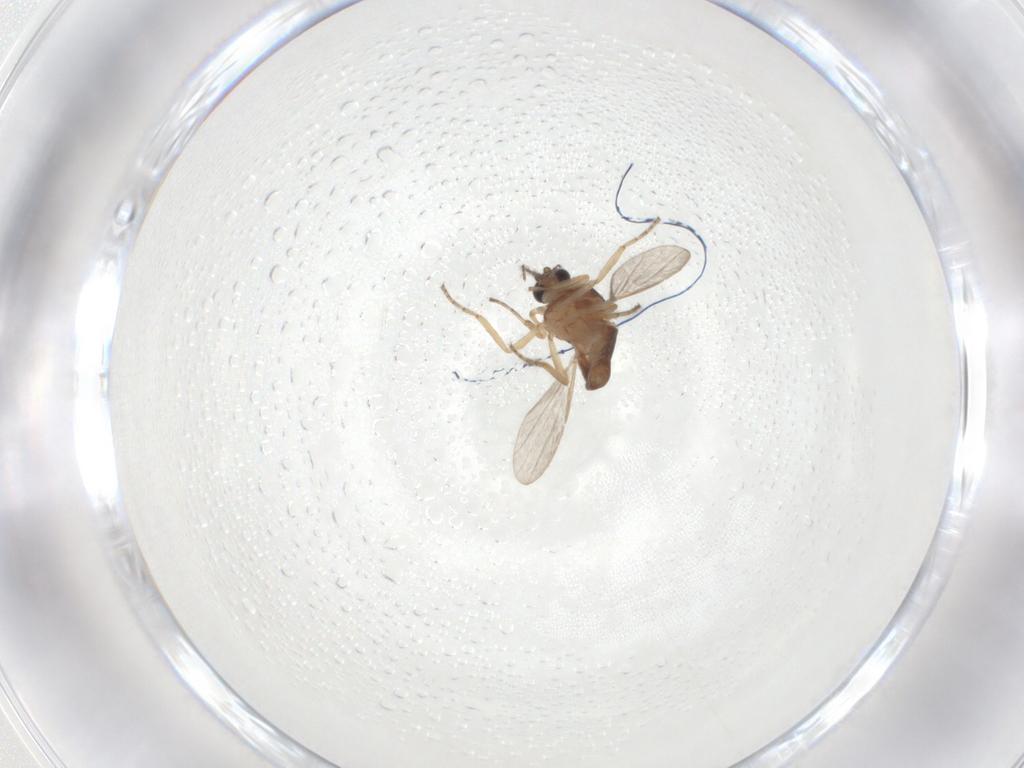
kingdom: Animalia
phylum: Arthropoda
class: Insecta
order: Diptera
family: Ceratopogonidae
